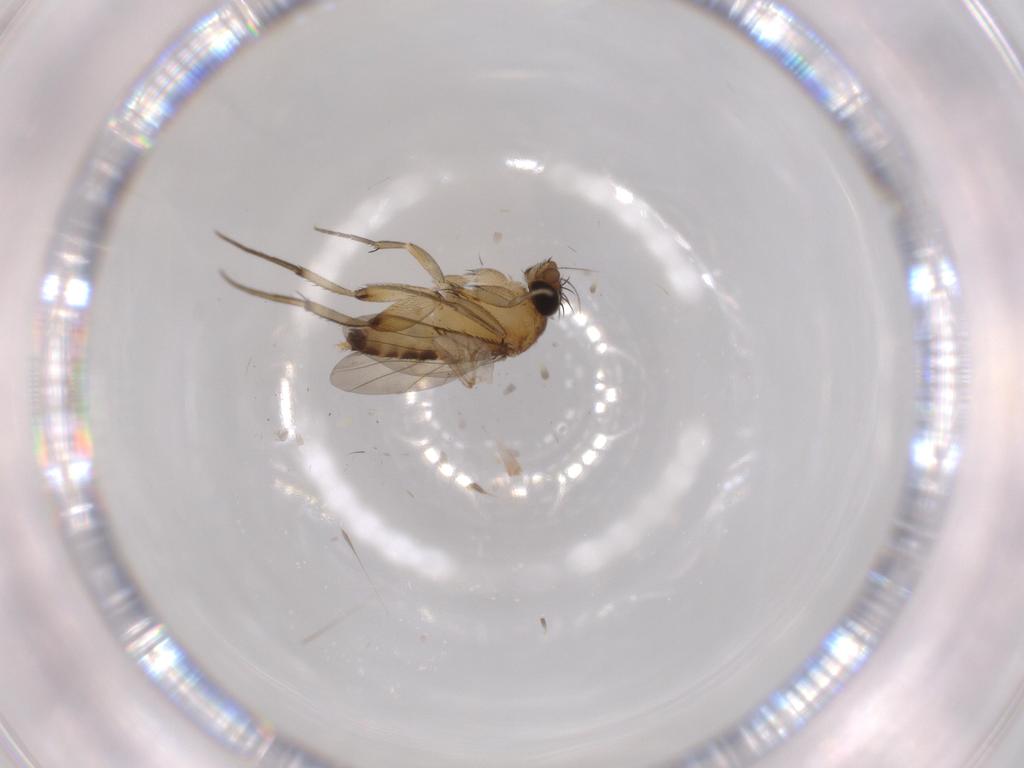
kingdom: Animalia
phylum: Arthropoda
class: Insecta
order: Diptera
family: Phoridae
